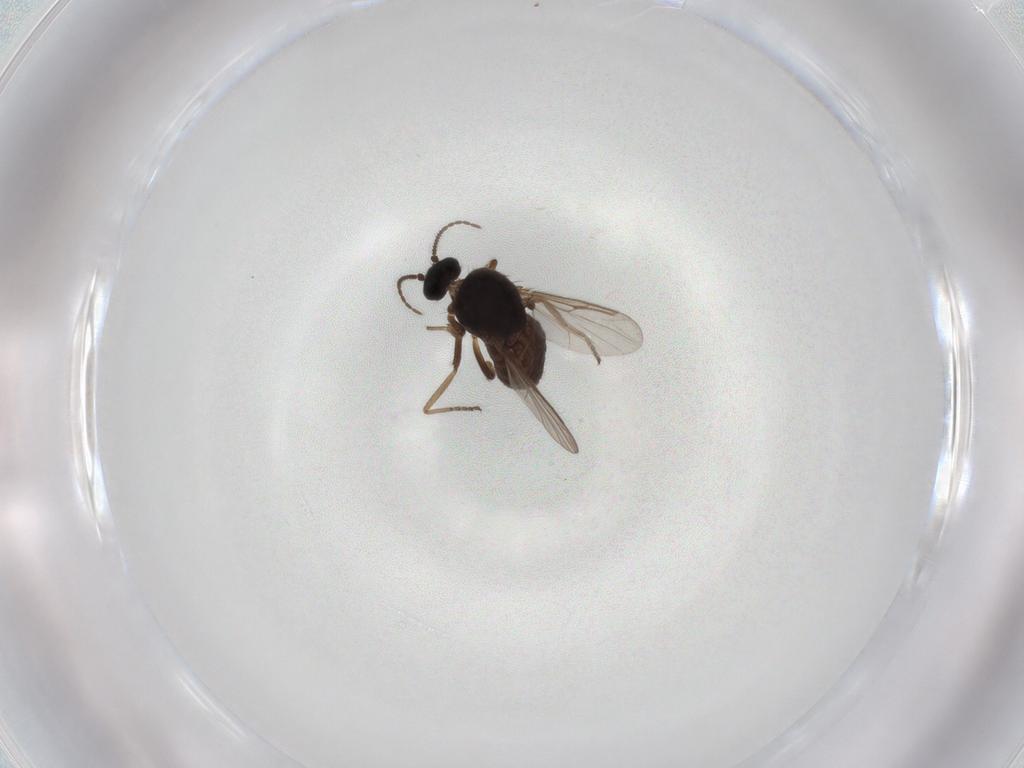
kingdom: Animalia
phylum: Arthropoda
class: Insecta
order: Diptera
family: Ceratopogonidae
